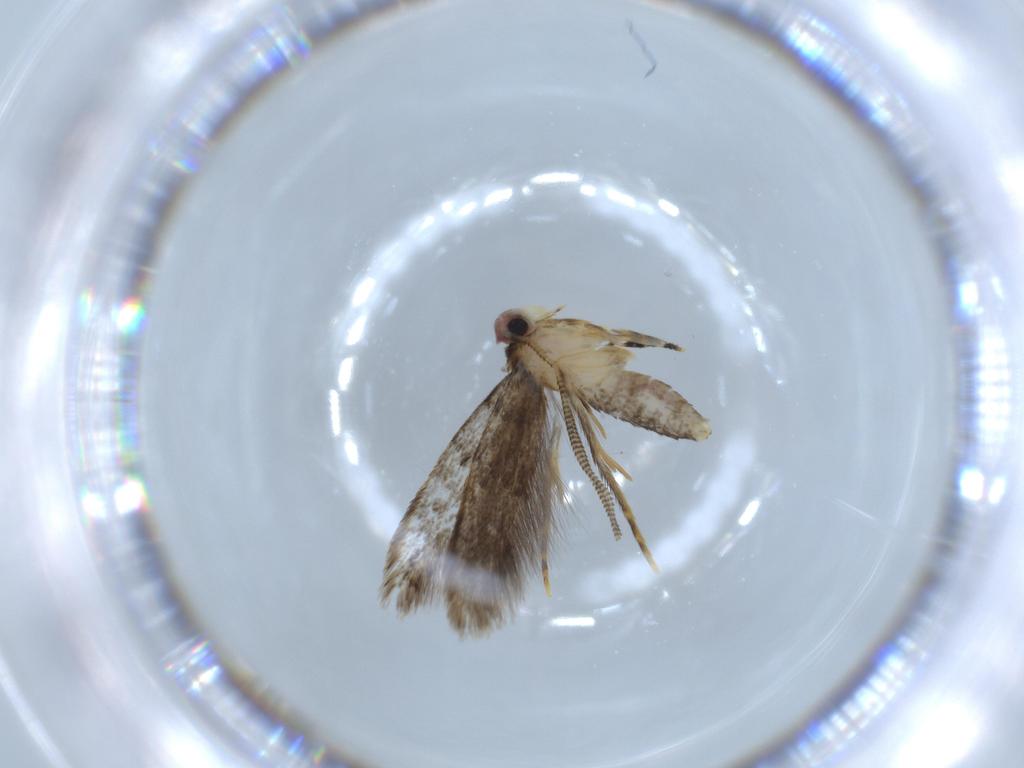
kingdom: Animalia
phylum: Arthropoda
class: Insecta
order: Lepidoptera
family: Tineidae
